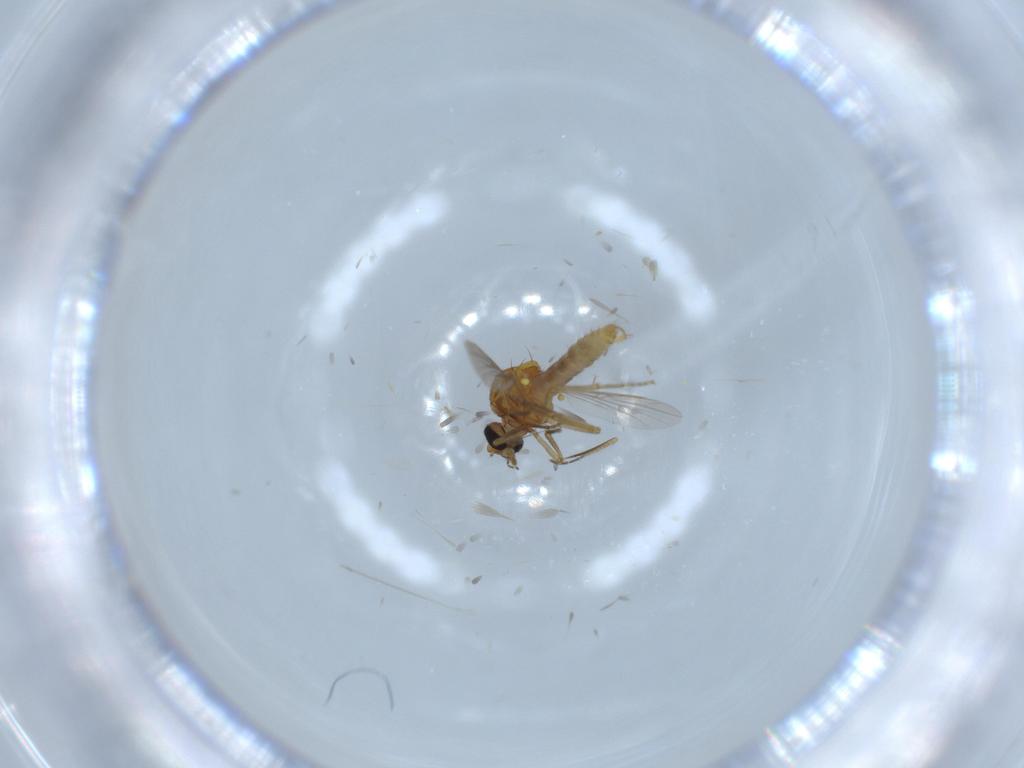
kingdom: Animalia
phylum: Arthropoda
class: Insecta
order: Diptera
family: Ceratopogonidae
